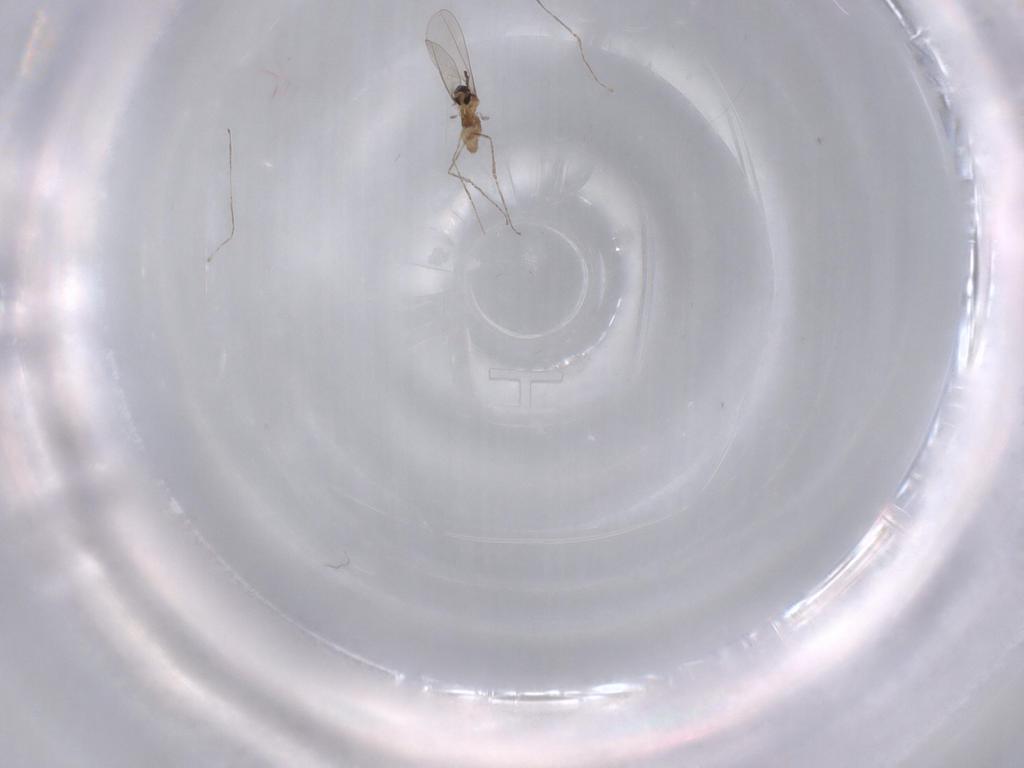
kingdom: Animalia
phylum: Arthropoda
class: Insecta
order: Diptera
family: Cecidomyiidae
